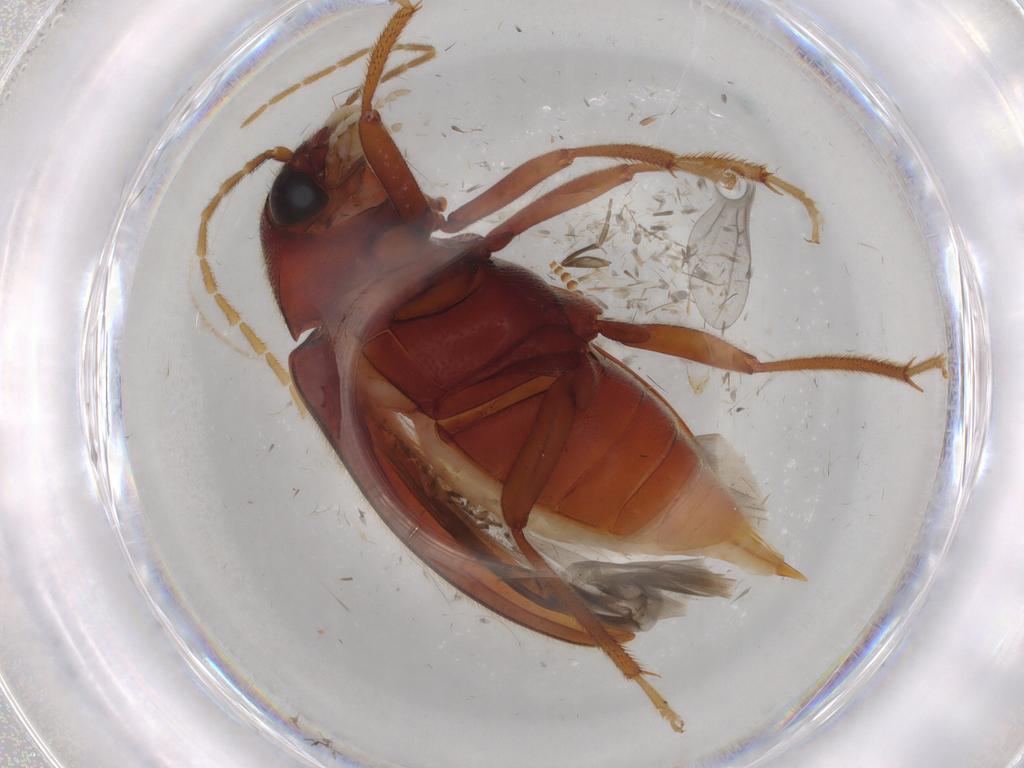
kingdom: Animalia
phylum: Arthropoda
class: Insecta
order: Coleoptera
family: Ptilodactylidae
